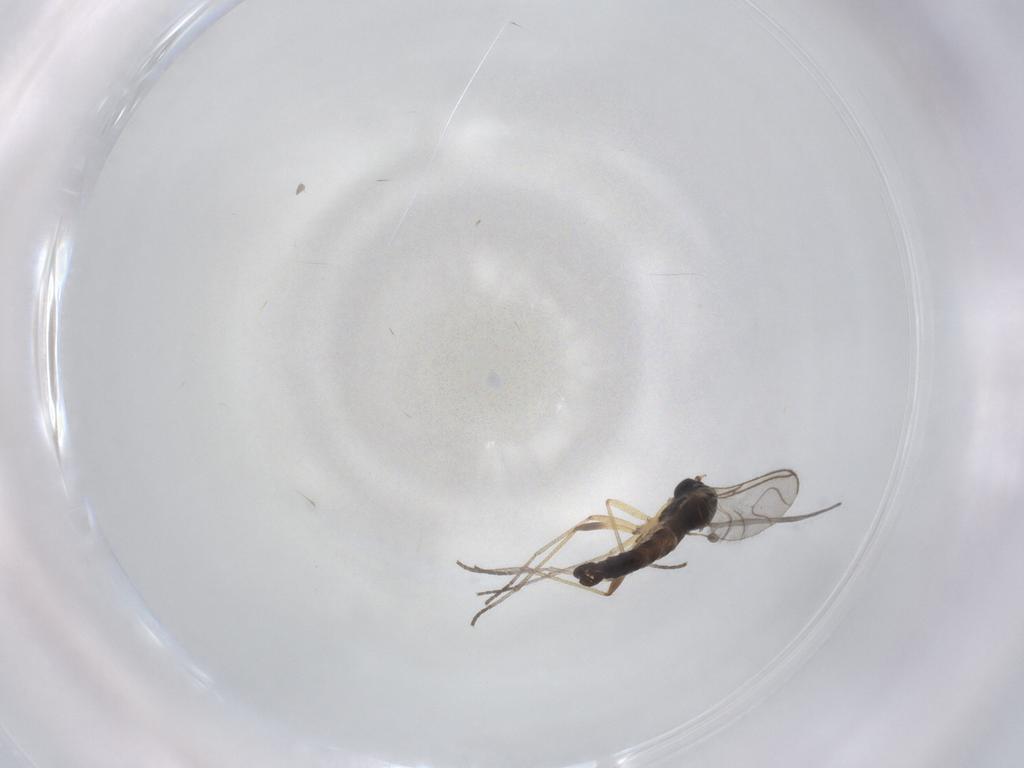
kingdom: Animalia
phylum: Arthropoda
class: Insecta
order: Diptera
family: Sciaridae
